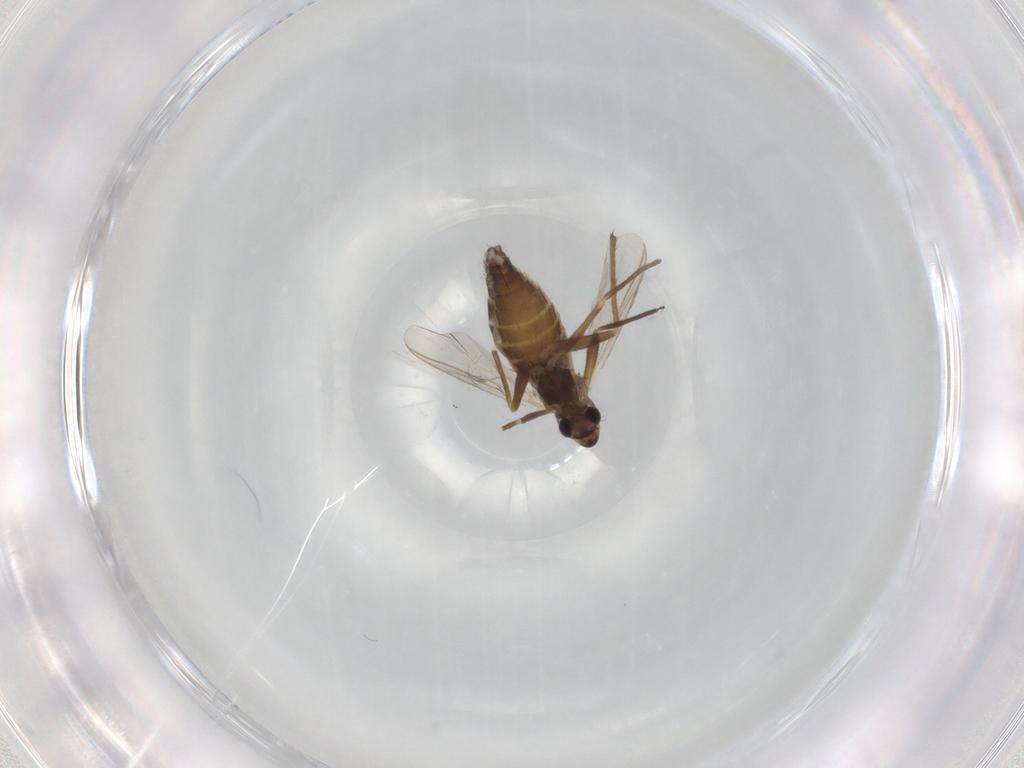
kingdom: Animalia
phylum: Arthropoda
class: Insecta
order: Diptera
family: Chironomidae
